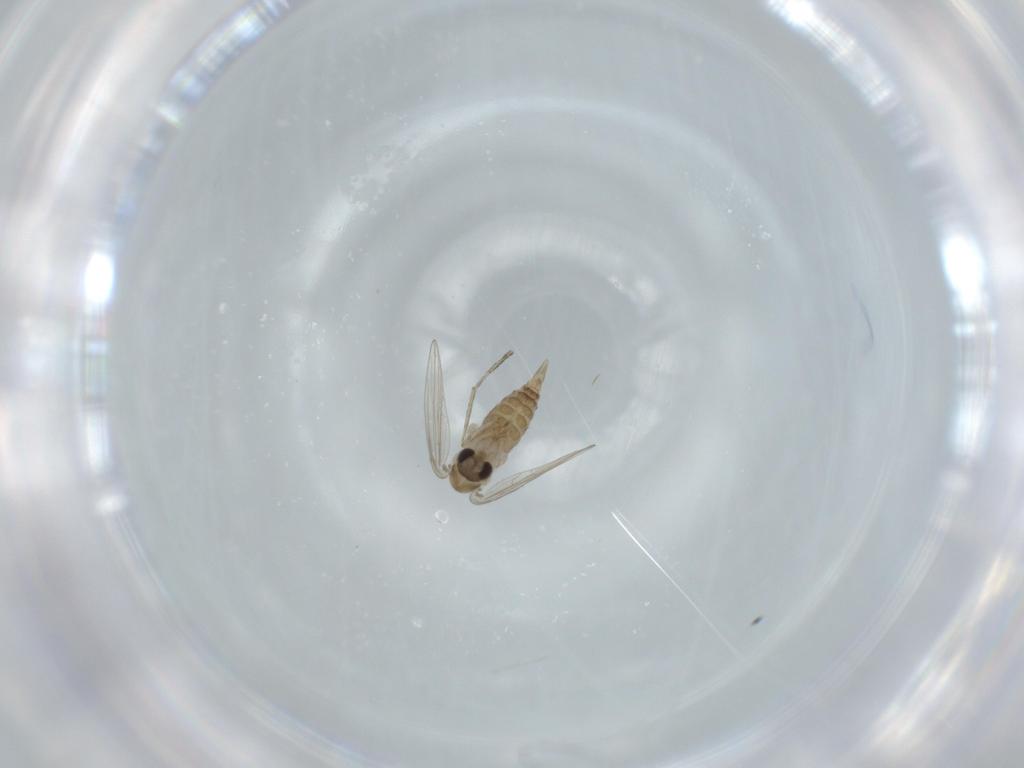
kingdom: Animalia
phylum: Arthropoda
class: Insecta
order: Diptera
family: Psychodidae
